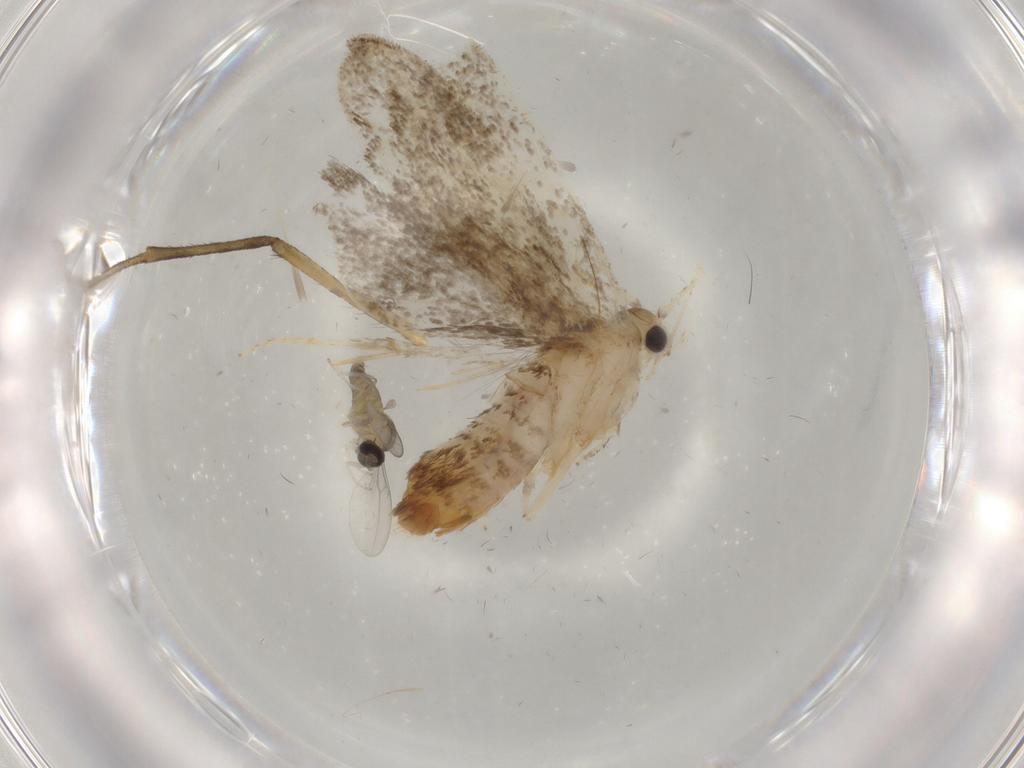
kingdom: Animalia
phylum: Arthropoda
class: Insecta
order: Lepidoptera
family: Tineidae
